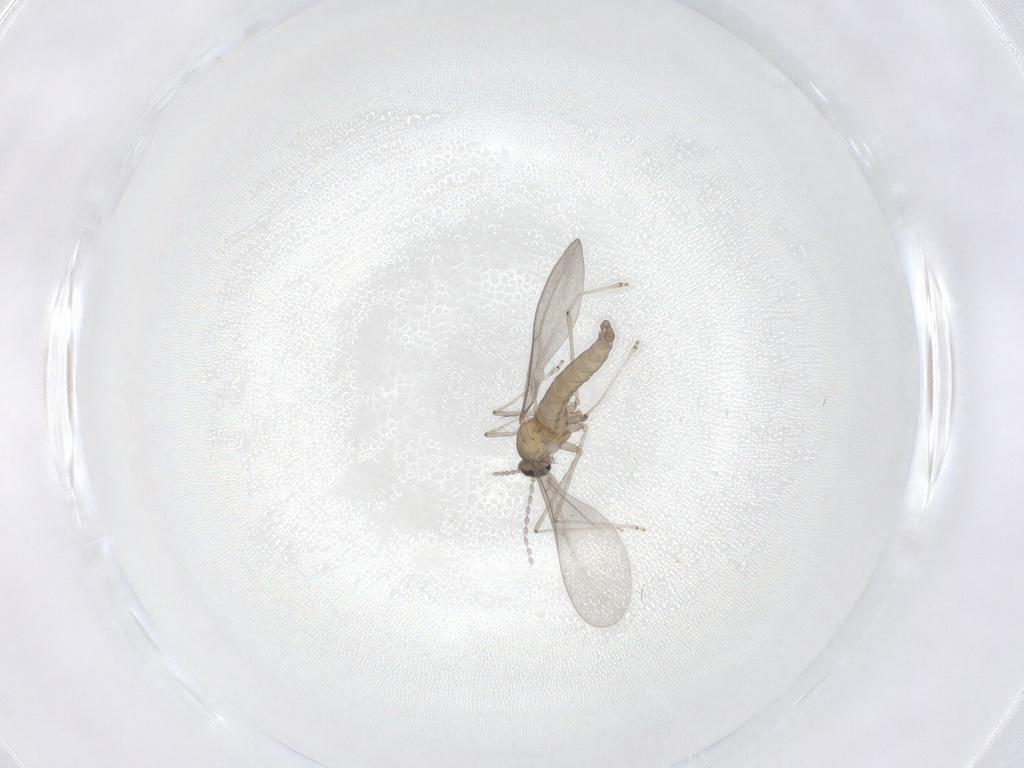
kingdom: Animalia
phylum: Arthropoda
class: Insecta
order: Diptera
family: Cecidomyiidae
